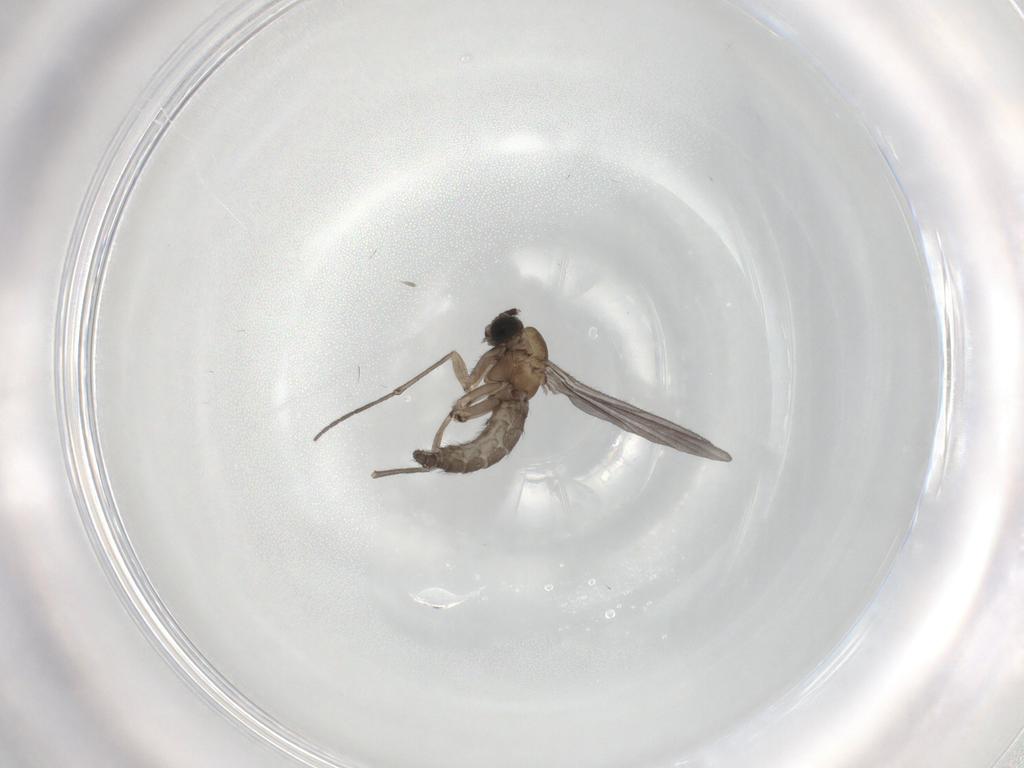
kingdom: Animalia
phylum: Arthropoda
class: Insecta
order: Diptera
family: Sciaridae
